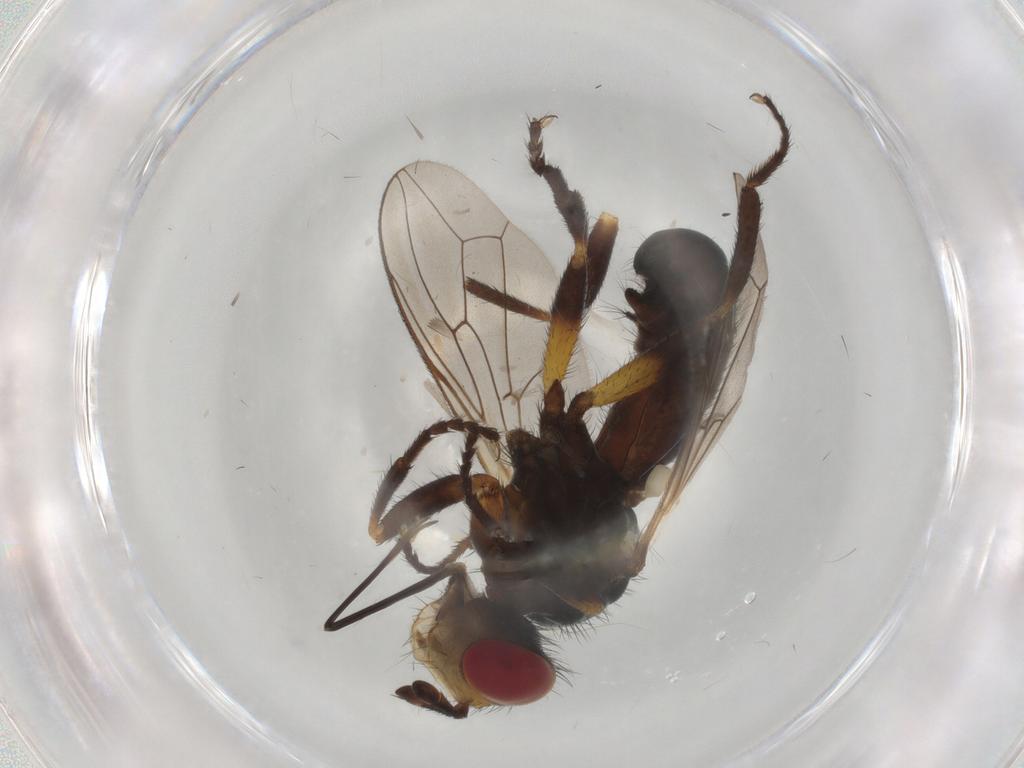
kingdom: Animalia
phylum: Arthropoda
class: Insecta
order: Diptera
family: Conopidae
